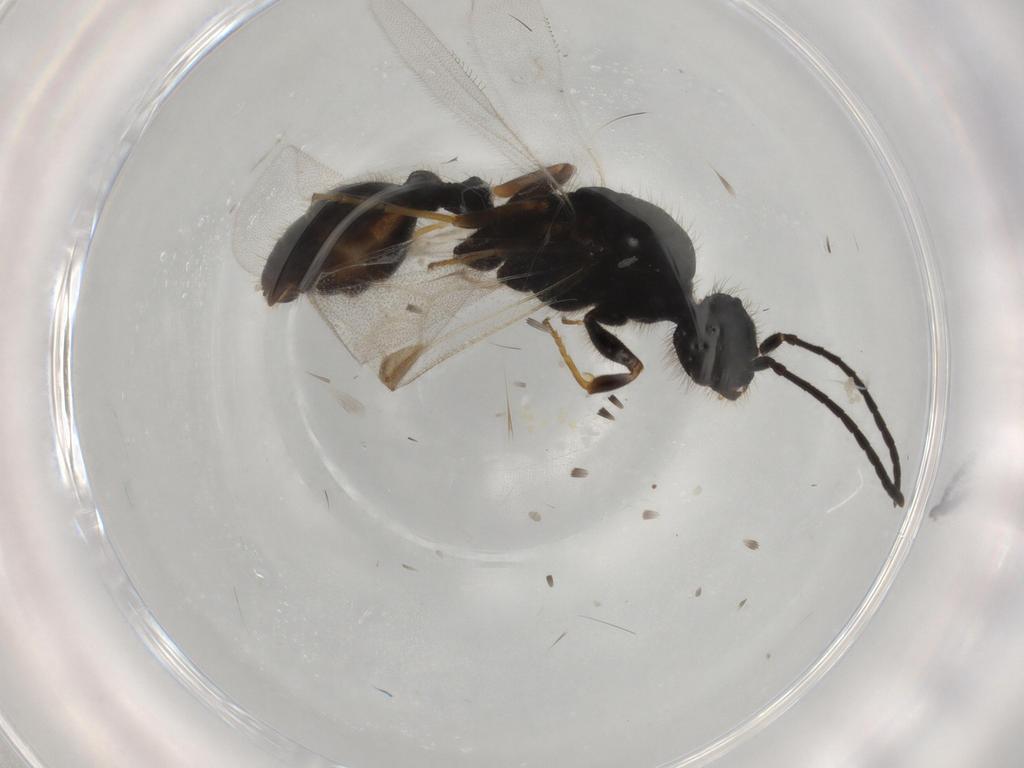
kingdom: Animalia
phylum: Arthropoda
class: Insecta
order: Hymenoptera
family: Formicidae
